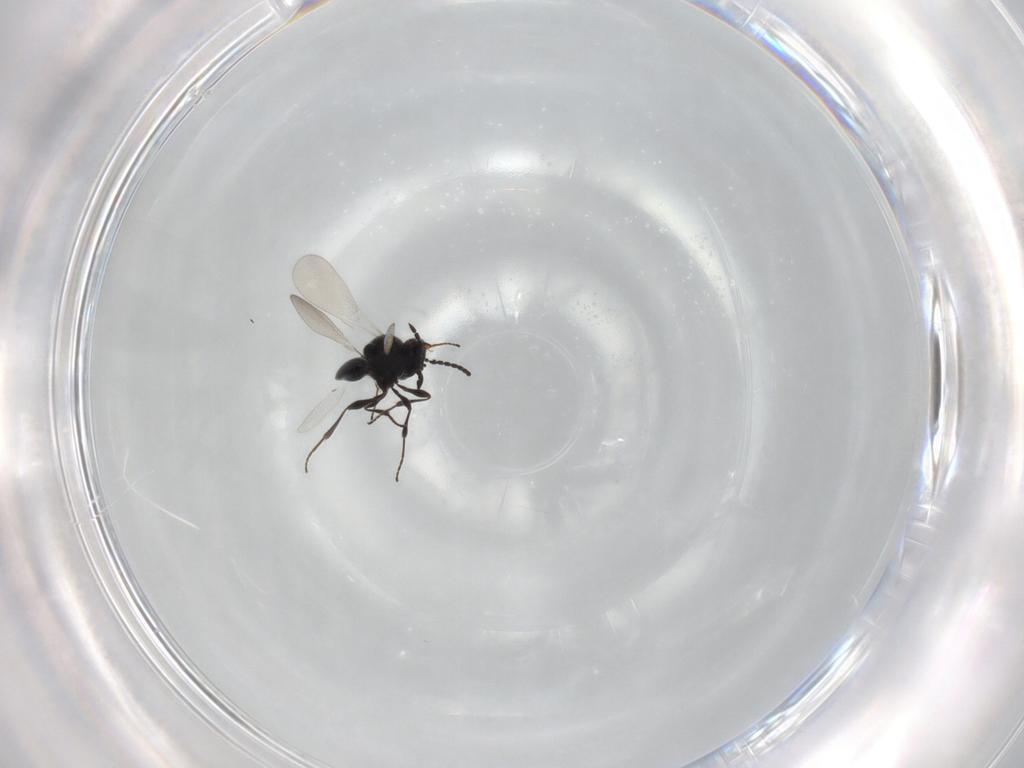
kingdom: Animalia
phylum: Arthropoda
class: Insecta
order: Hymenoptera
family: Platygastridae
